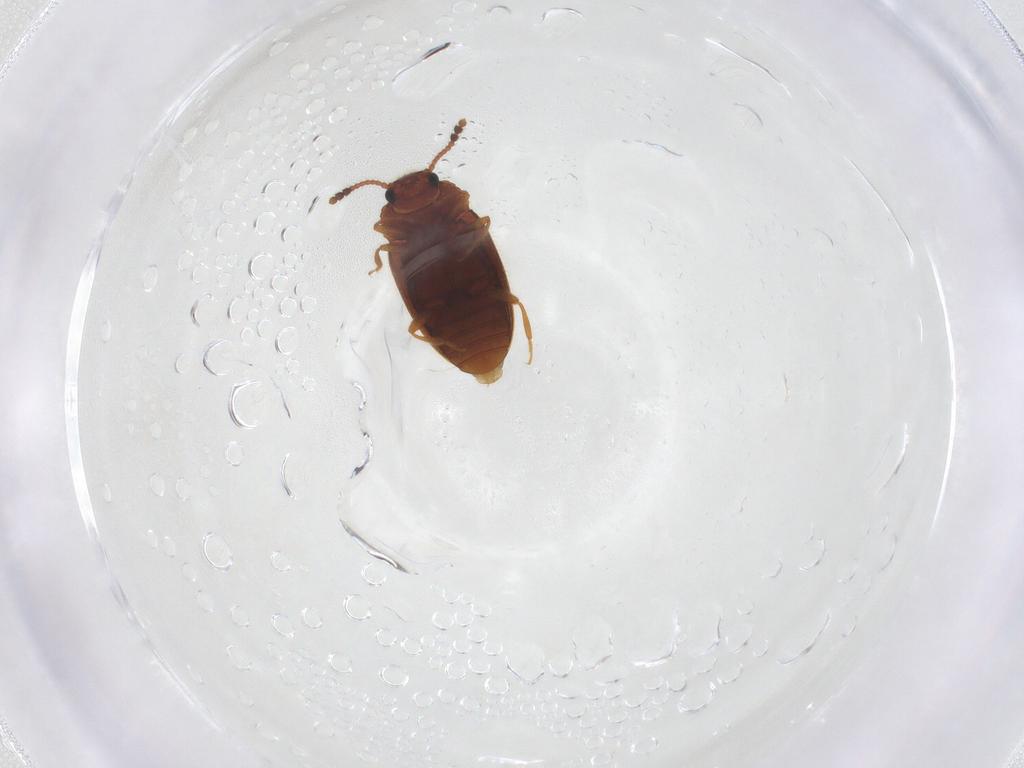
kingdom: Animalia
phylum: Arthropoda
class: Insecta
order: Coleoptera
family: Erotylidae
